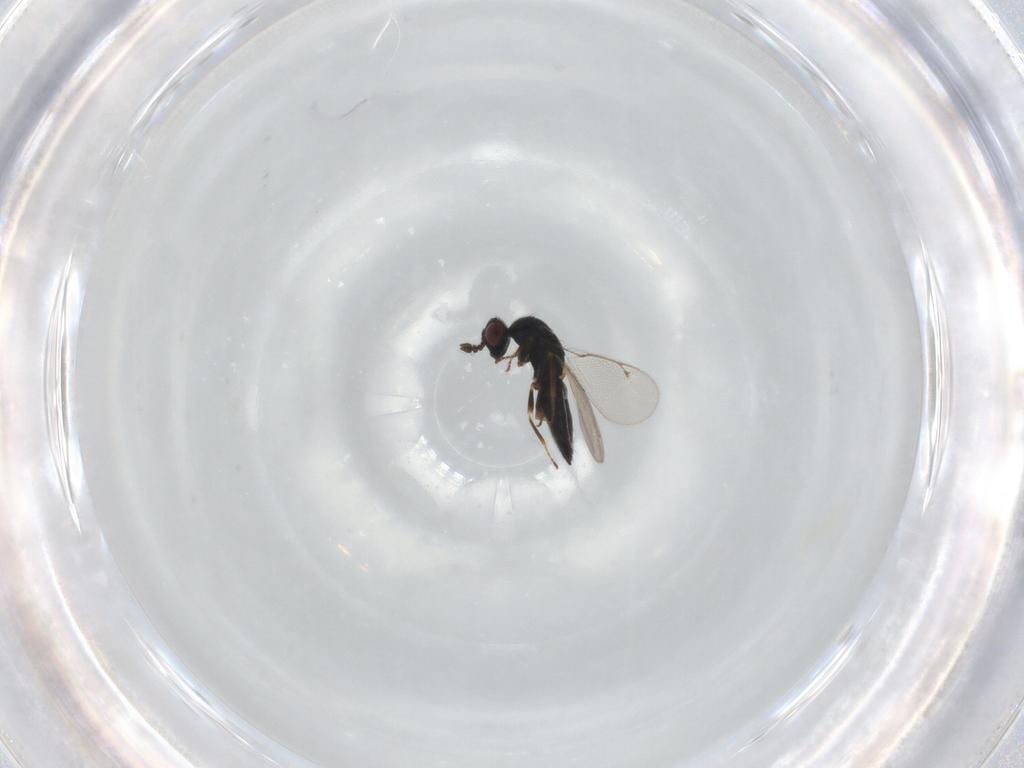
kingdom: Animalia
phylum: Arthropoda
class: Insecta
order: Hymenoptera
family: Eulophidae
